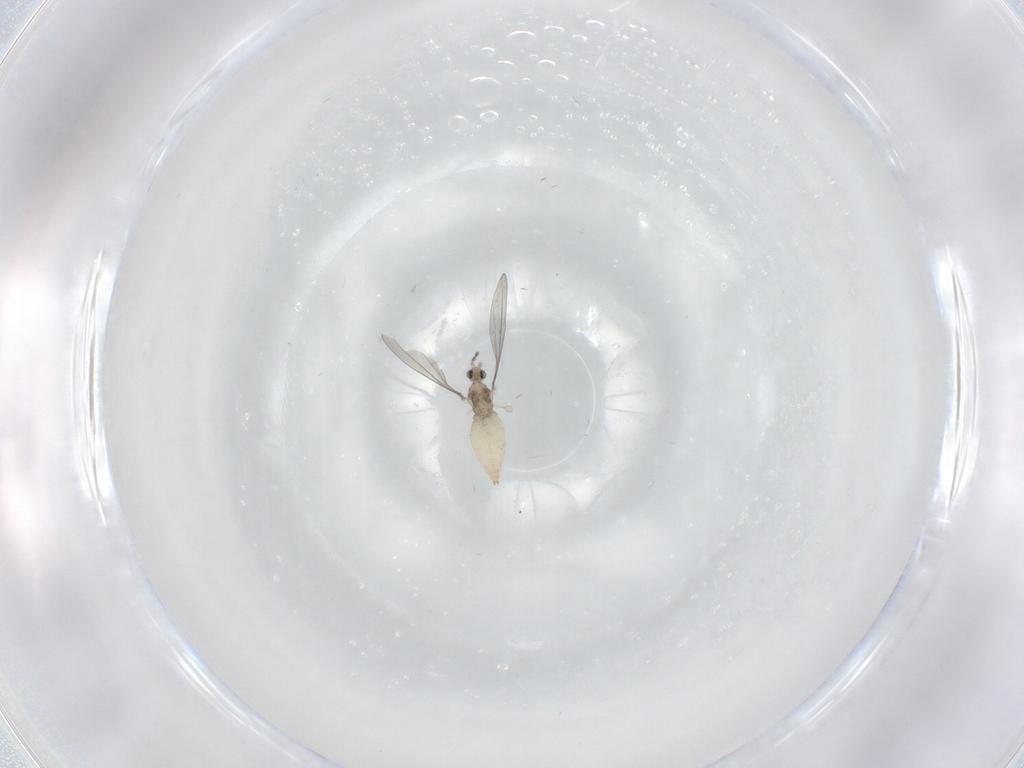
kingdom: Animalia
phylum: Arthropoda
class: Insecta
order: Diptera
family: Cecidomyiidae
